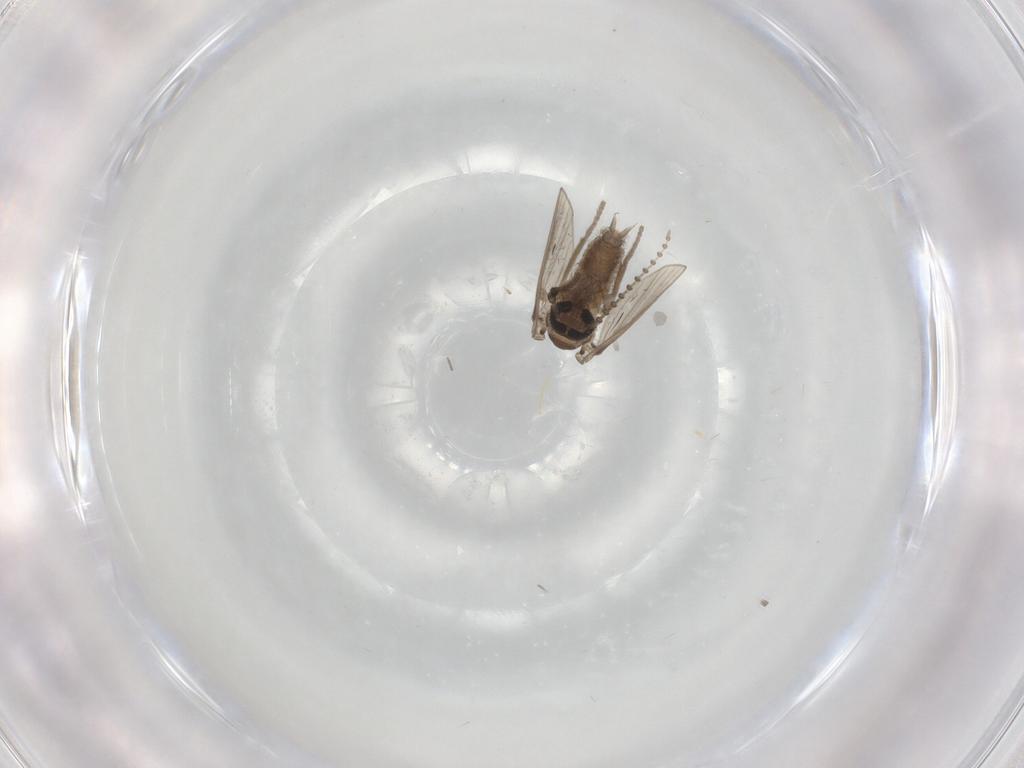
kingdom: Animalia
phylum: Arthropoda
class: Insecta
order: Diptera
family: Psychodidae
